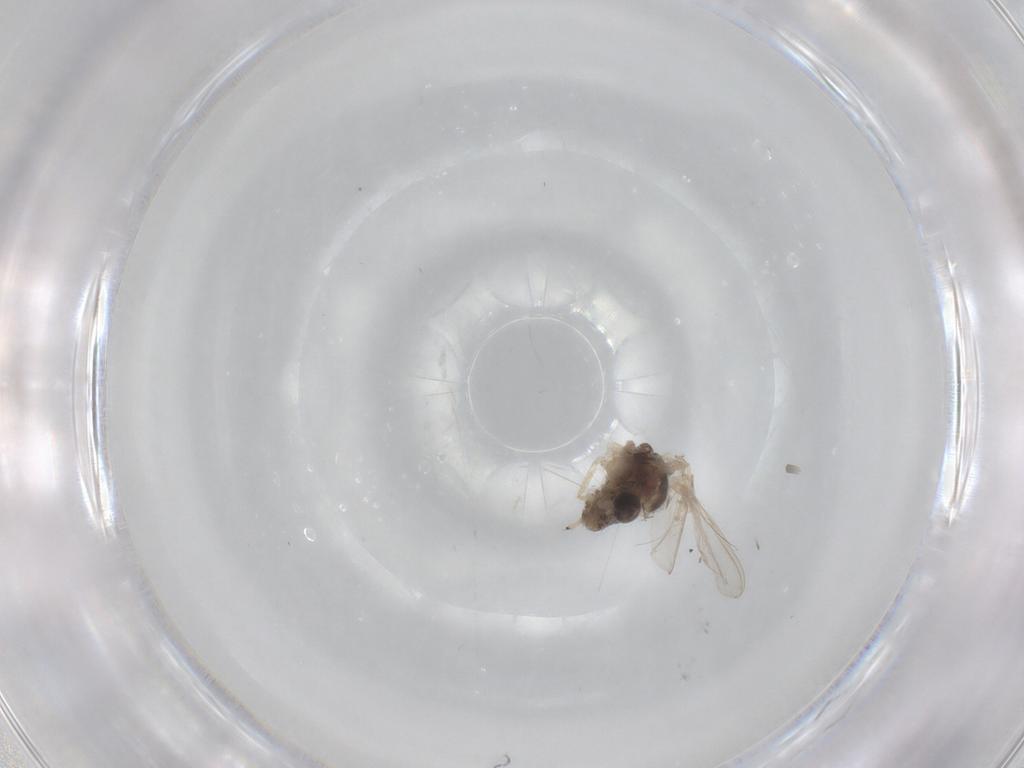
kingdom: Animalia
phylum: Arthropoda
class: Insecta
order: Diptera
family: Chironomidae
